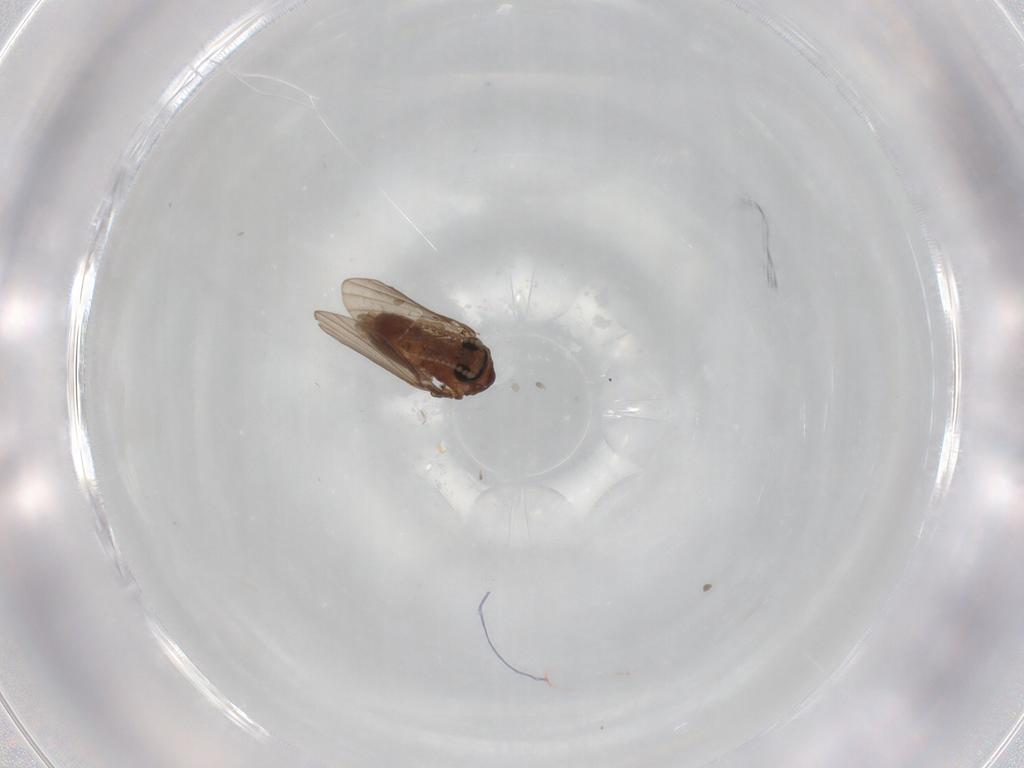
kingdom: Animalia
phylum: Arthropoda
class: Insecta
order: Diptera
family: Psychodidae
